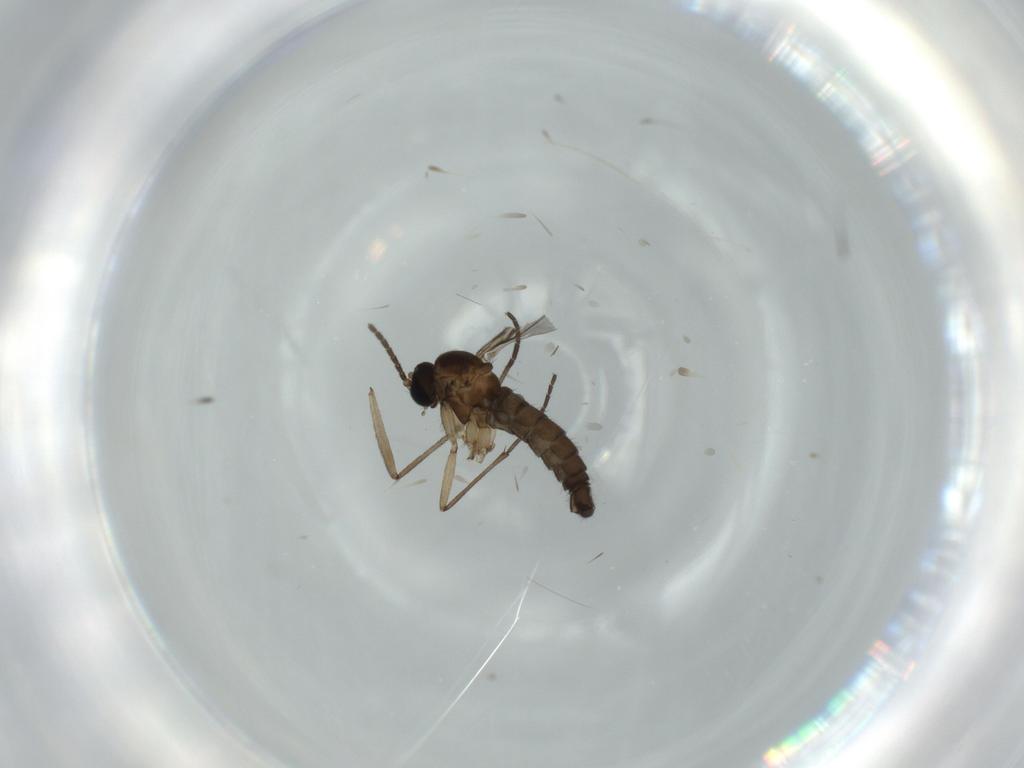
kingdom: Animalia
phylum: Arthropoda
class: Insecta
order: Diptera
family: Sciaridae
